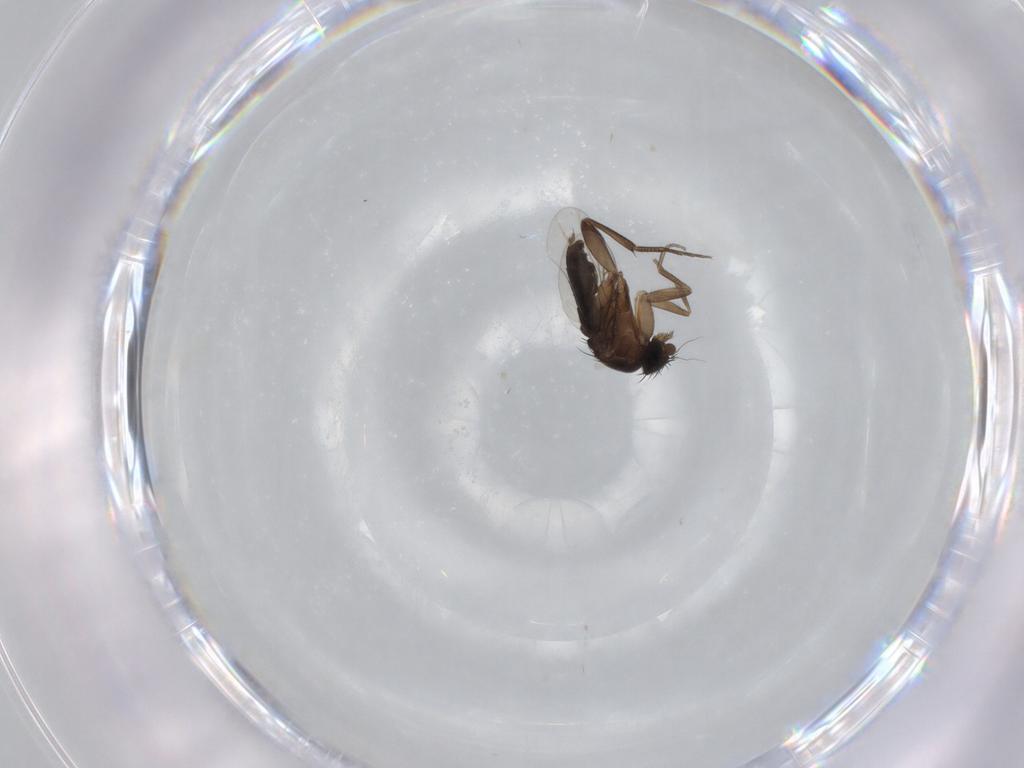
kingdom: Animalia
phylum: Arthropoda
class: Insecta
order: Diptera
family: Phoridae
